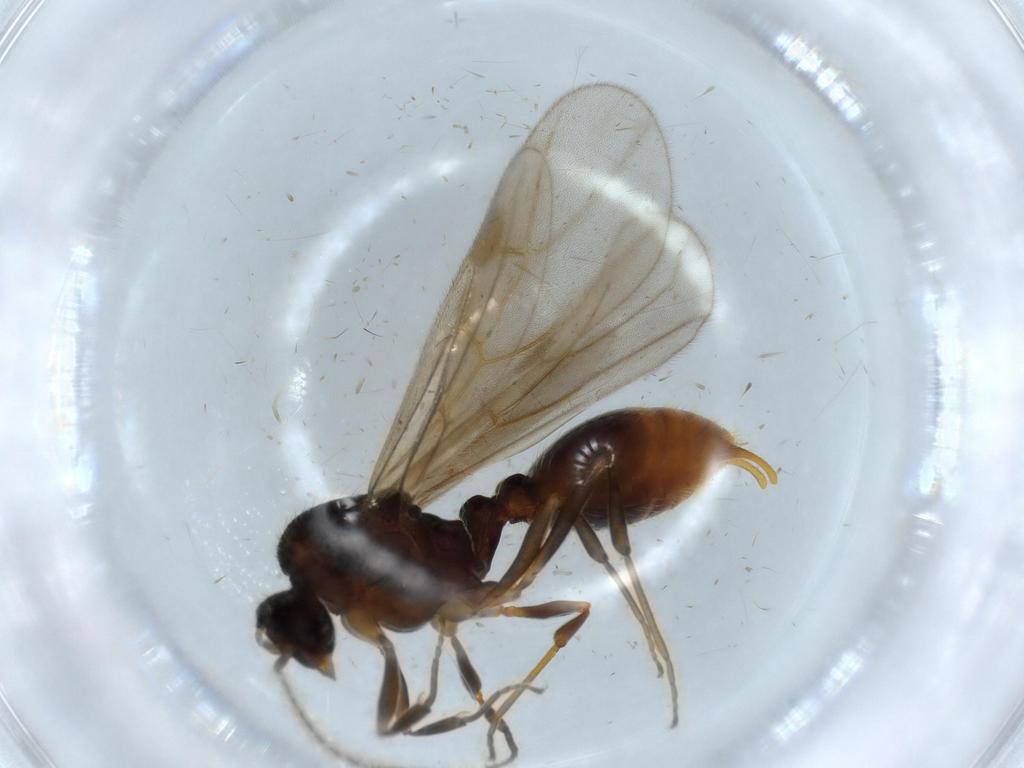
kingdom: Animalia
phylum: Arthropoda
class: Insecta
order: Hymenoptera
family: Formicidae
